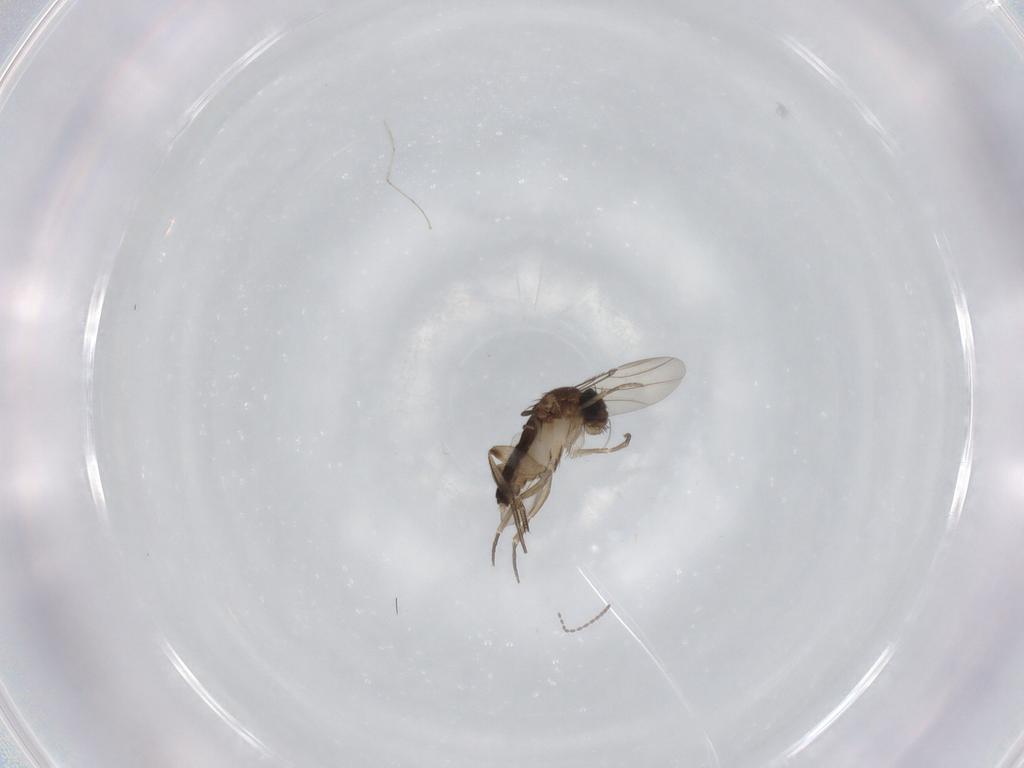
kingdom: Animalia
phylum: Arthropoda
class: Insecta
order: Diptera
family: Phoridae
